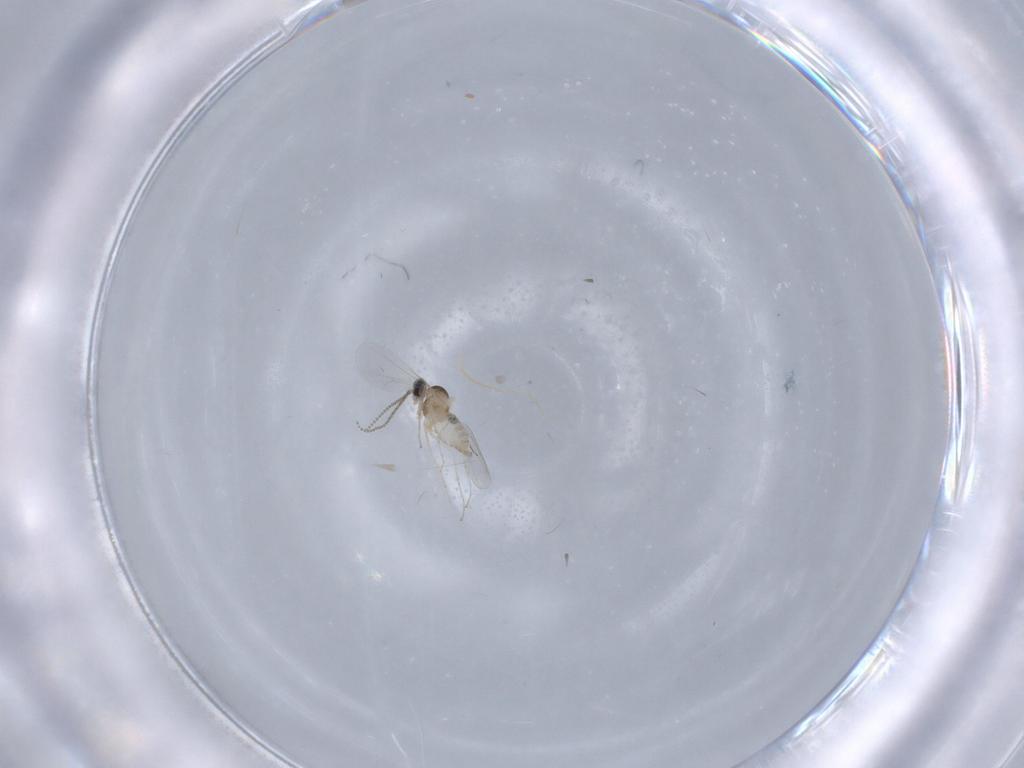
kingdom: Animalia
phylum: Arthropoda
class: Insecta
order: Diptera
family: Cecidomyiidae
